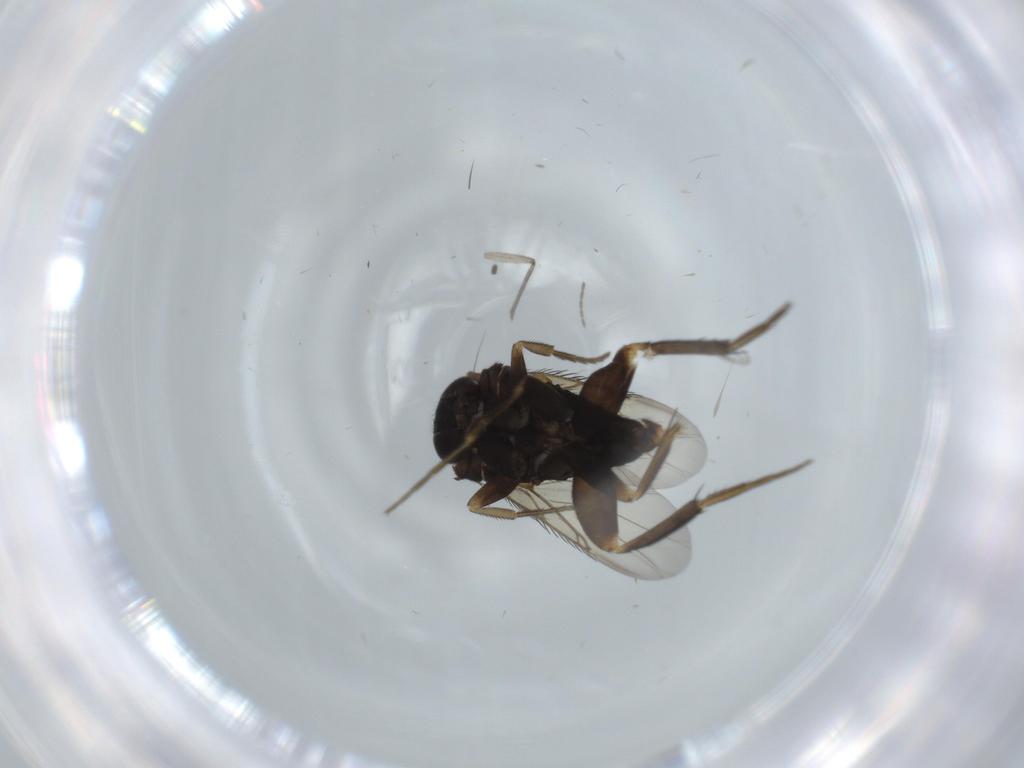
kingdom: Animalia
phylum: Arthropoda
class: Insecta
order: Diptera
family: Phoridae
